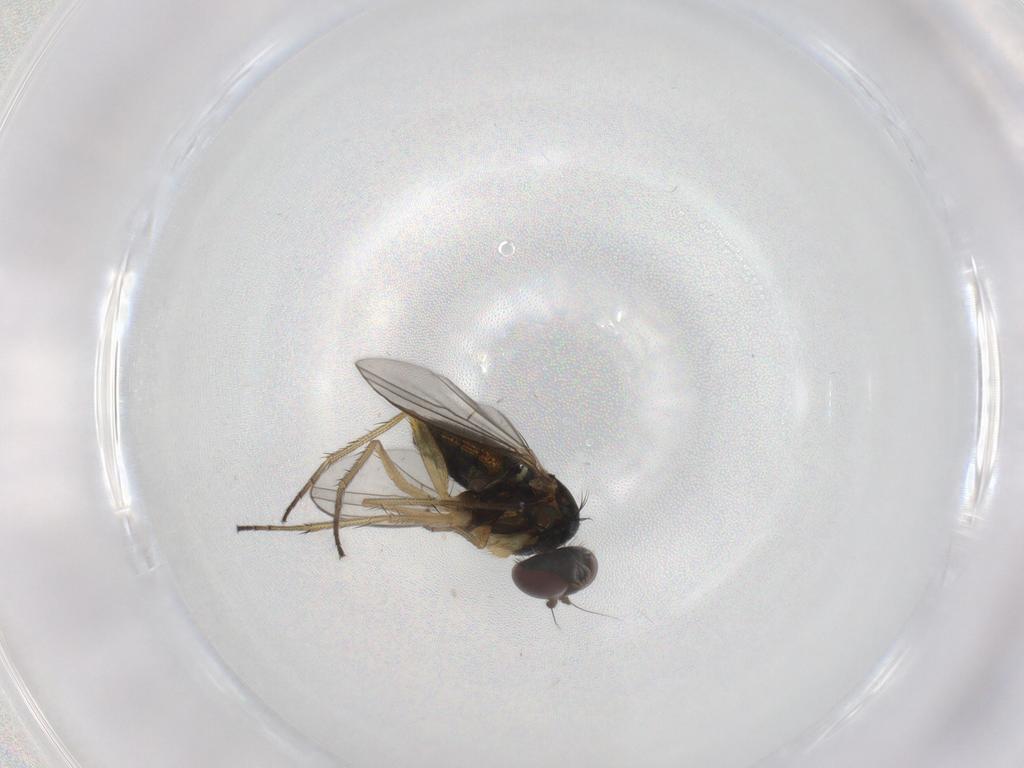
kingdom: Animalia
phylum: Arthropoda
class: Insecta
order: Diptera
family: Dolichopodidae
